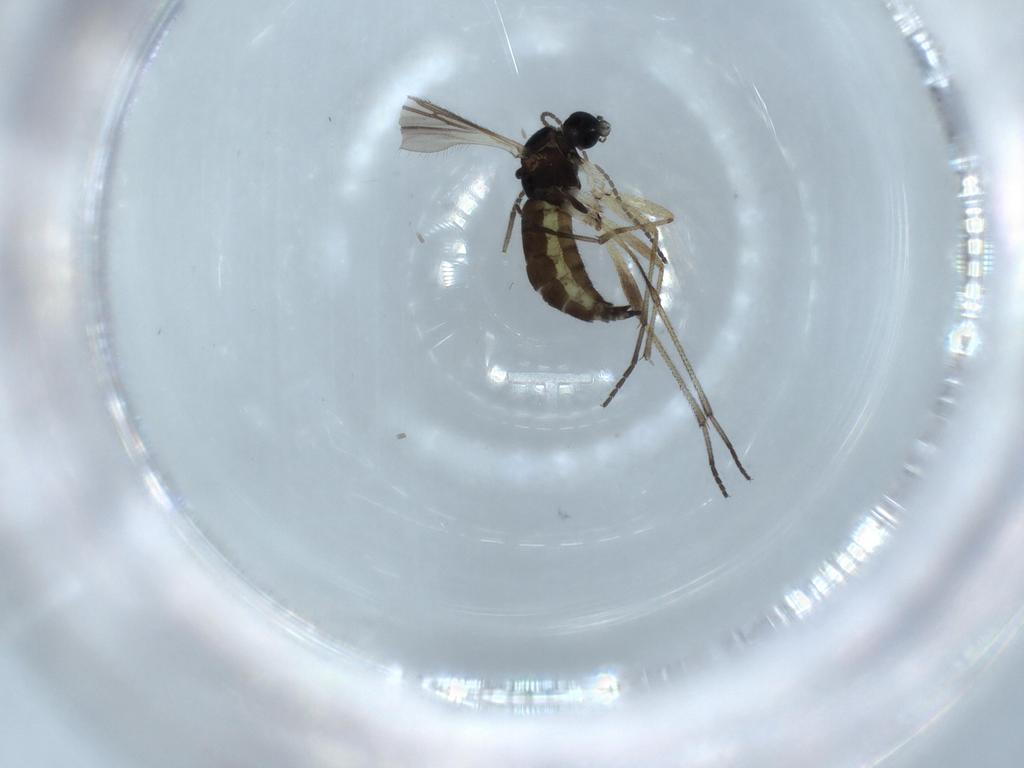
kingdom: Animalia
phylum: Arthropoda
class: Insecta
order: Diptera
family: Sciaridae
